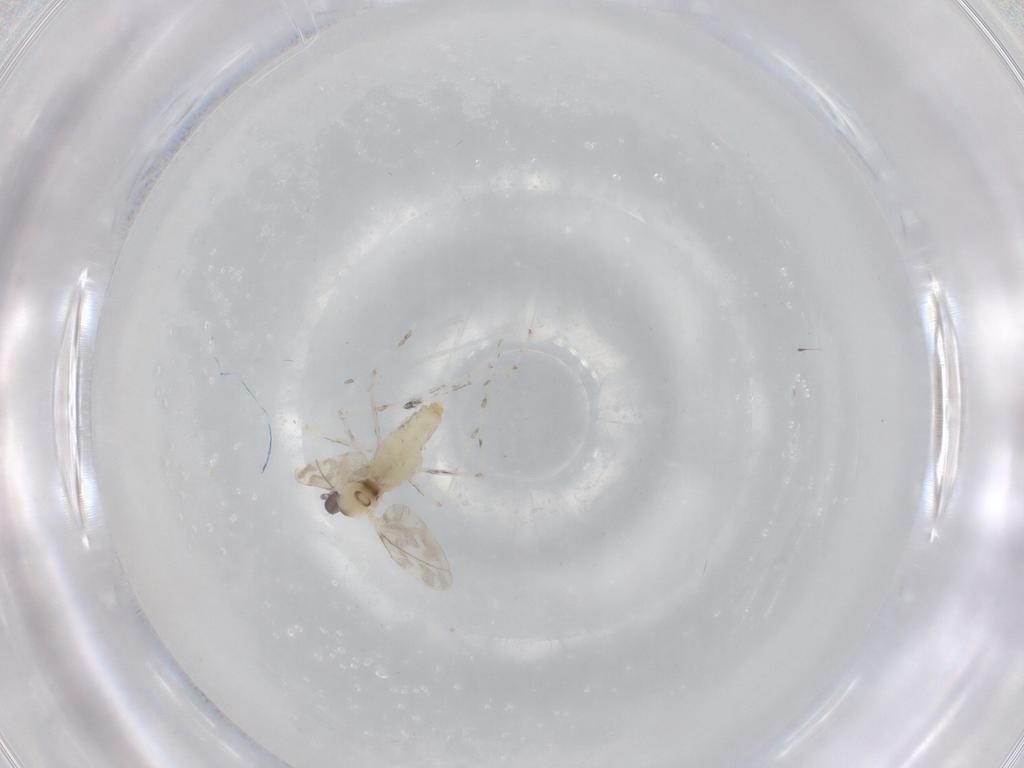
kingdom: Animalia
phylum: Arthropoda
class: Insecta
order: Diptera
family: Cecidomyiidae
